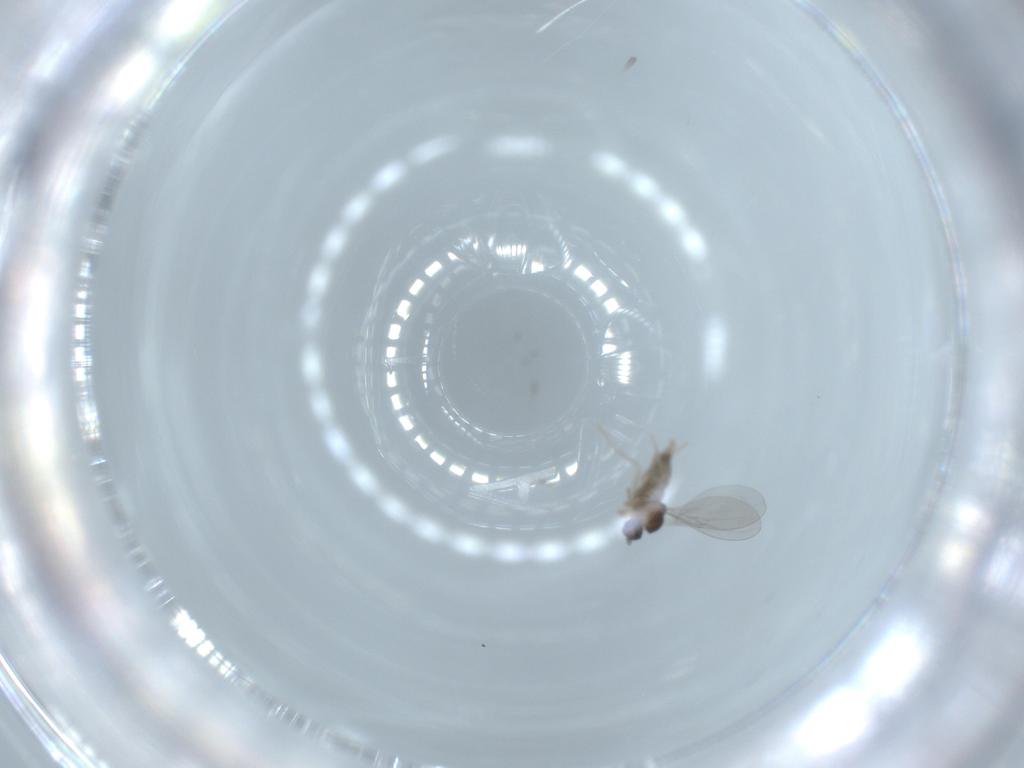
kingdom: Animalia
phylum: Arthropoda
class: Insecta
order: Diptera
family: Cecidomyiidae
